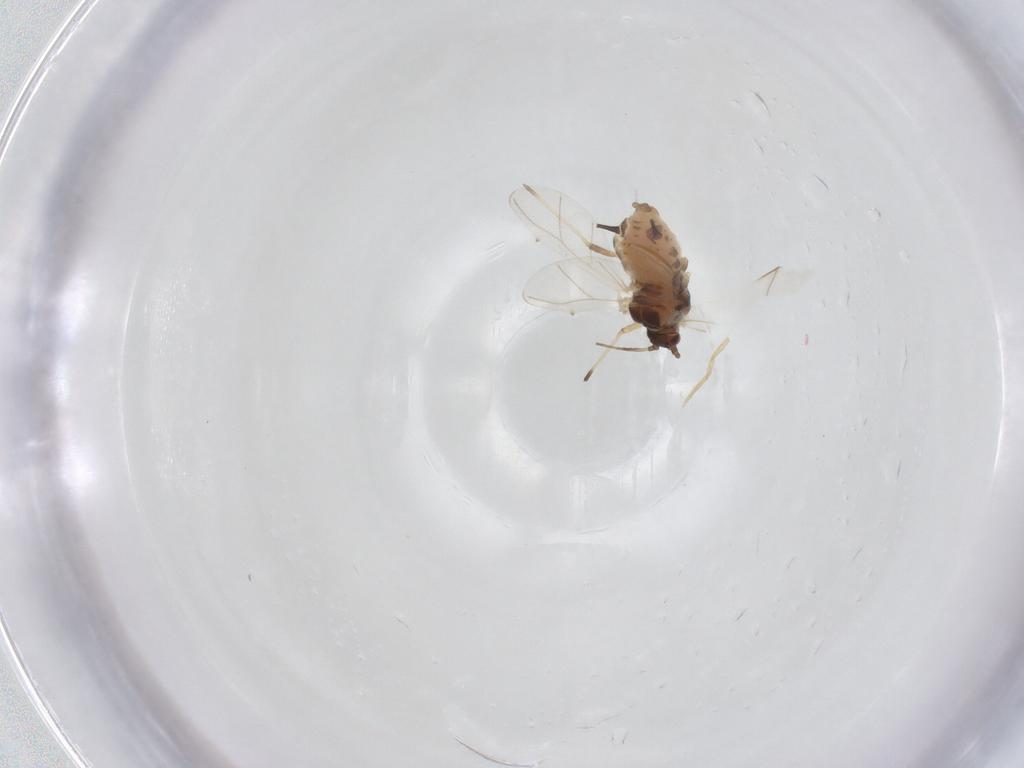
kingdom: Animalia
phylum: Arthropoda
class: Insecta
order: Hemiptera
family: Aphididae
